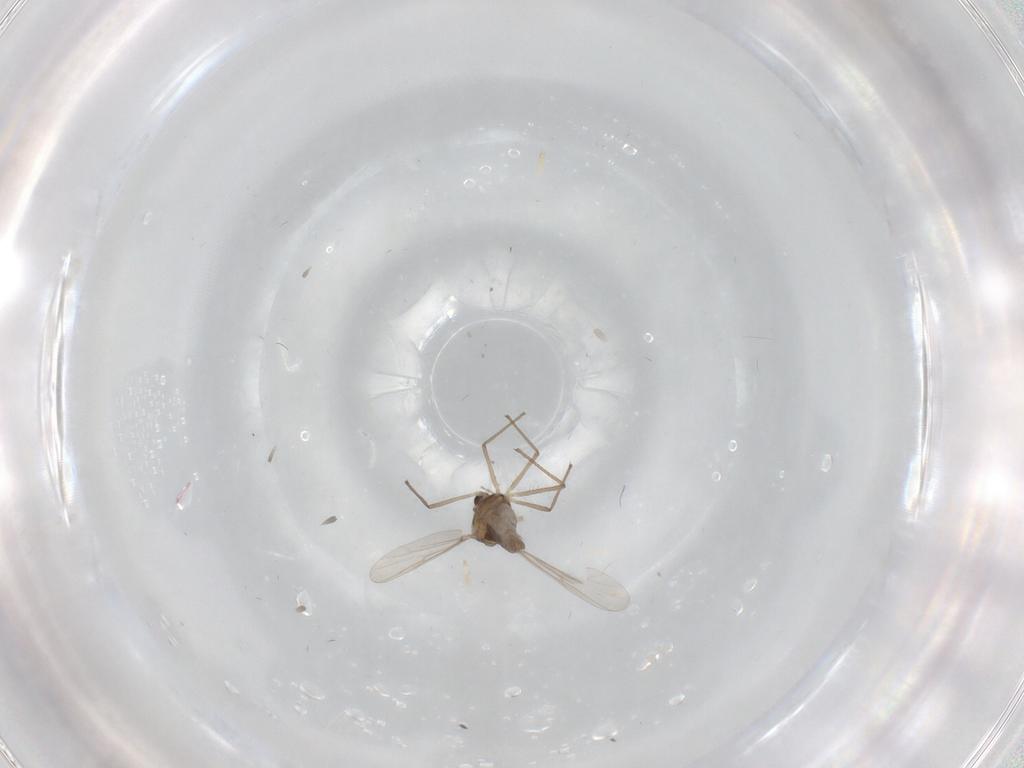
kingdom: Animalia
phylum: Arthropoda
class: Insecta
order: Diptera
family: Chironomidae
